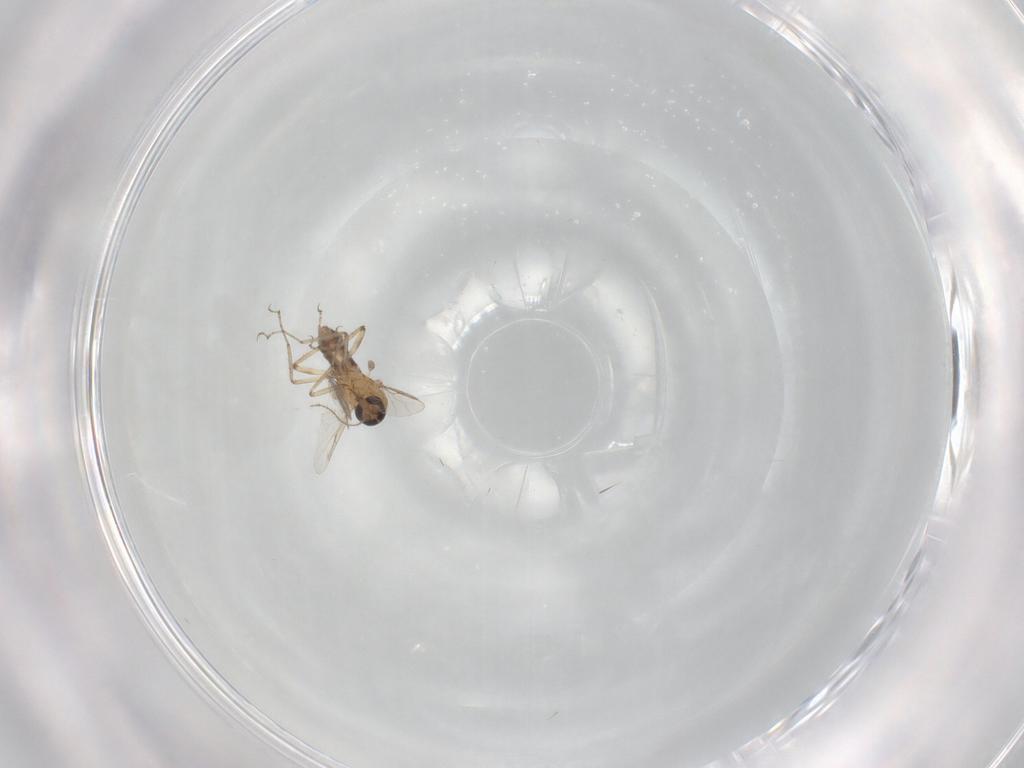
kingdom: Animalia
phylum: Arthropoda
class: Insecta
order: Diptera
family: Ceratopogonidae
